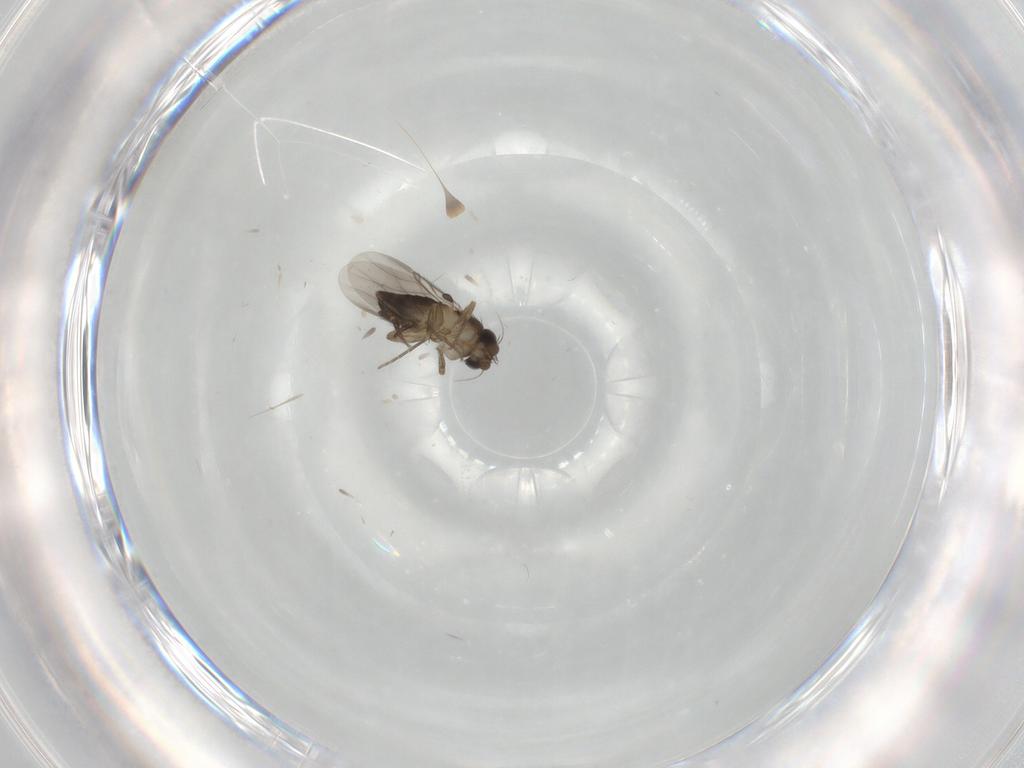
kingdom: Animalia
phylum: Arthropoda
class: Insecta
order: Diptera
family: Phoridae
